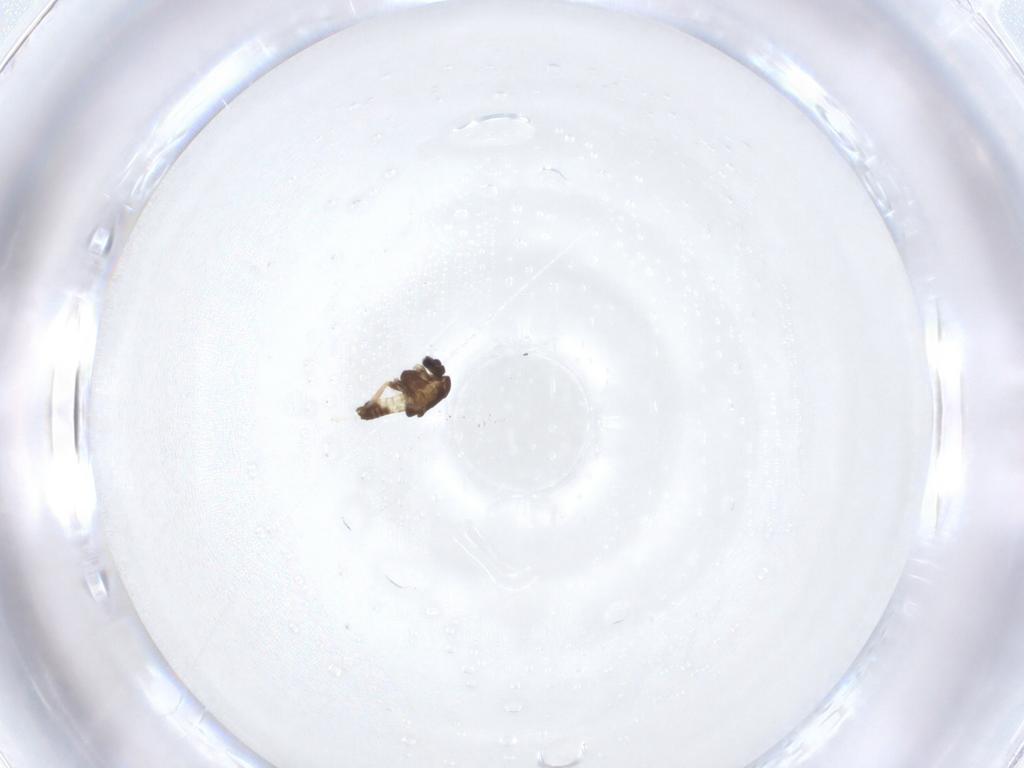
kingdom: Animalia
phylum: Arthropoda
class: Insecta
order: Diptera
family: Chironomidae
